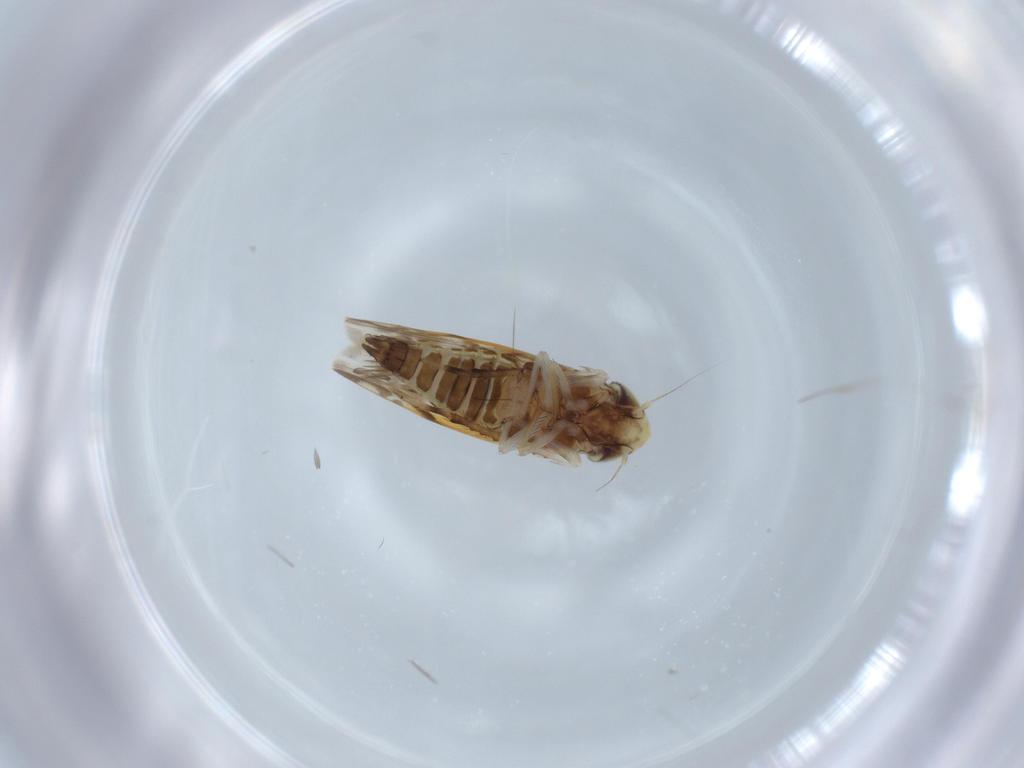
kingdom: Animalia
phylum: Arthropoda
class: Insecta
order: Hemiptera
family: Cicadellidae
